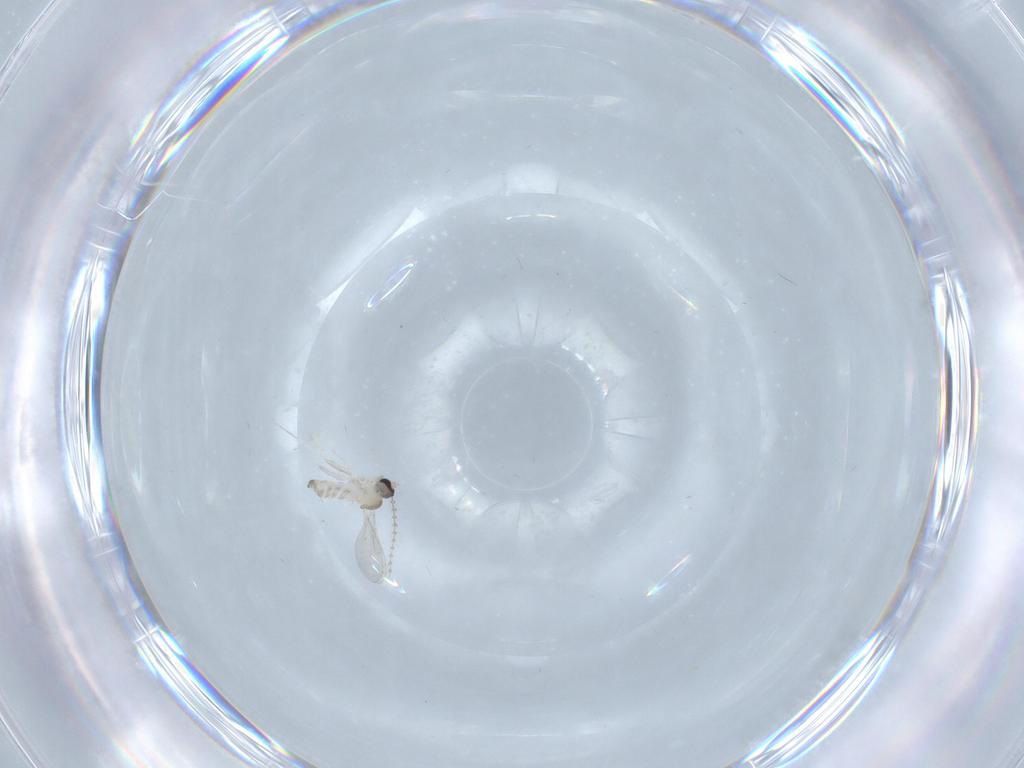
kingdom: Animalia
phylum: Arthropoda
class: Insecta
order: Diptera
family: Cecidomyiidae
